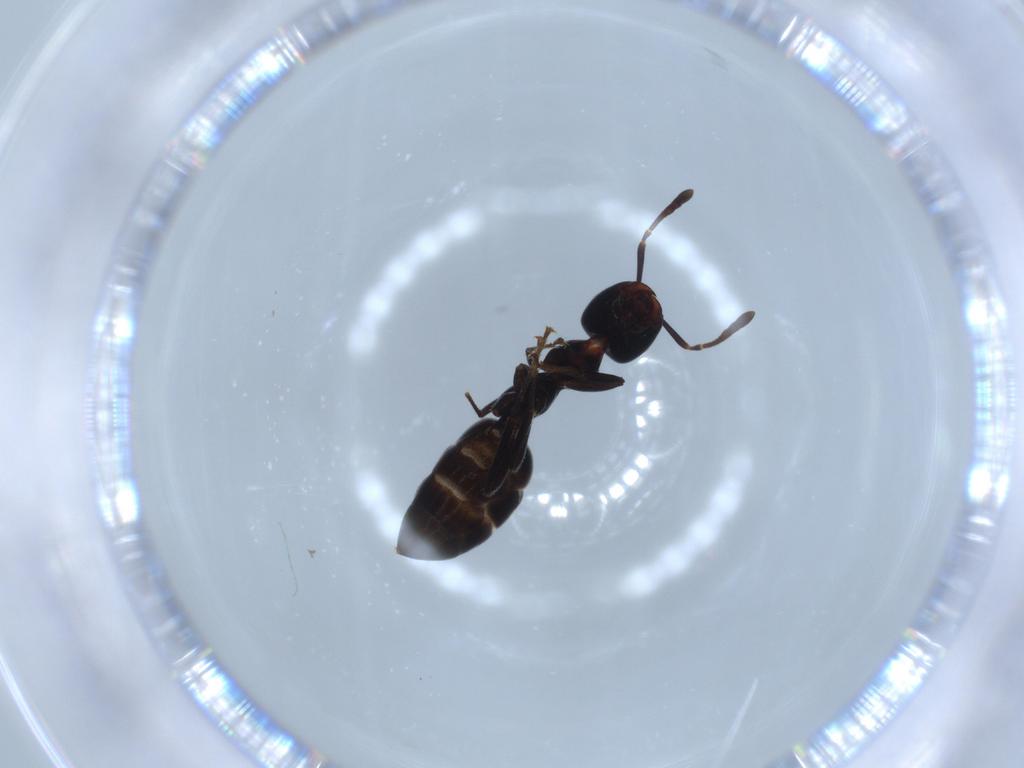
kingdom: Animalia
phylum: Arthropoda
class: Insecta
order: Hymenoptera
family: Formicidae
